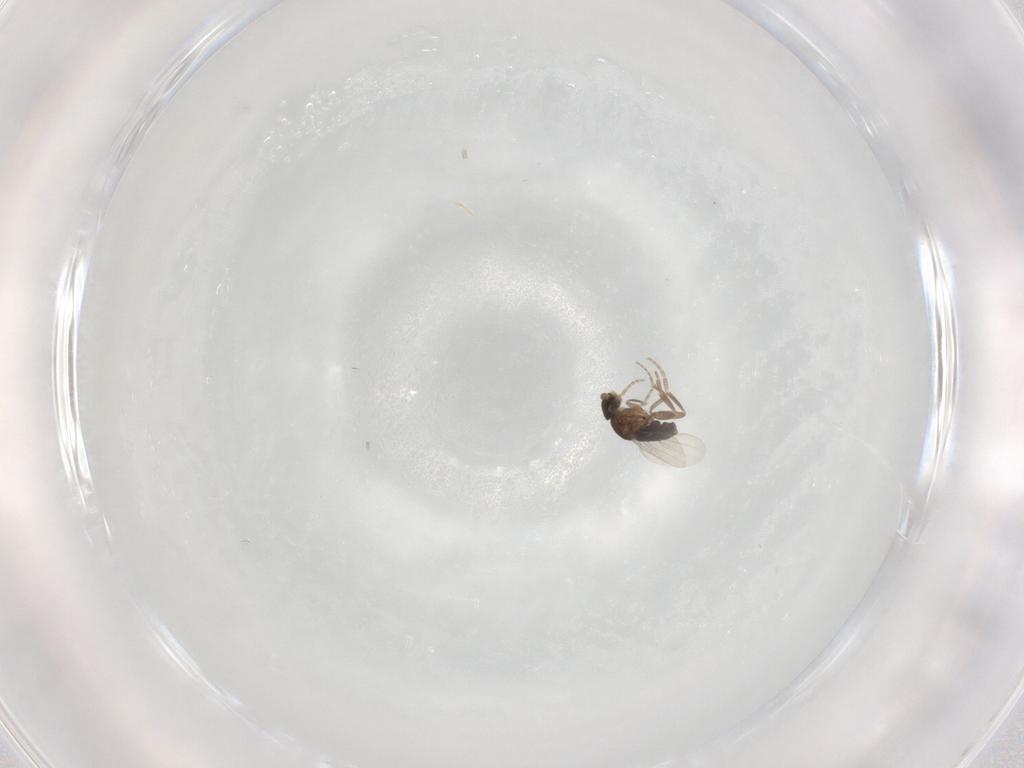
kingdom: Animalia
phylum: Arthropoda
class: Insecta
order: Diptera
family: Phoridae
